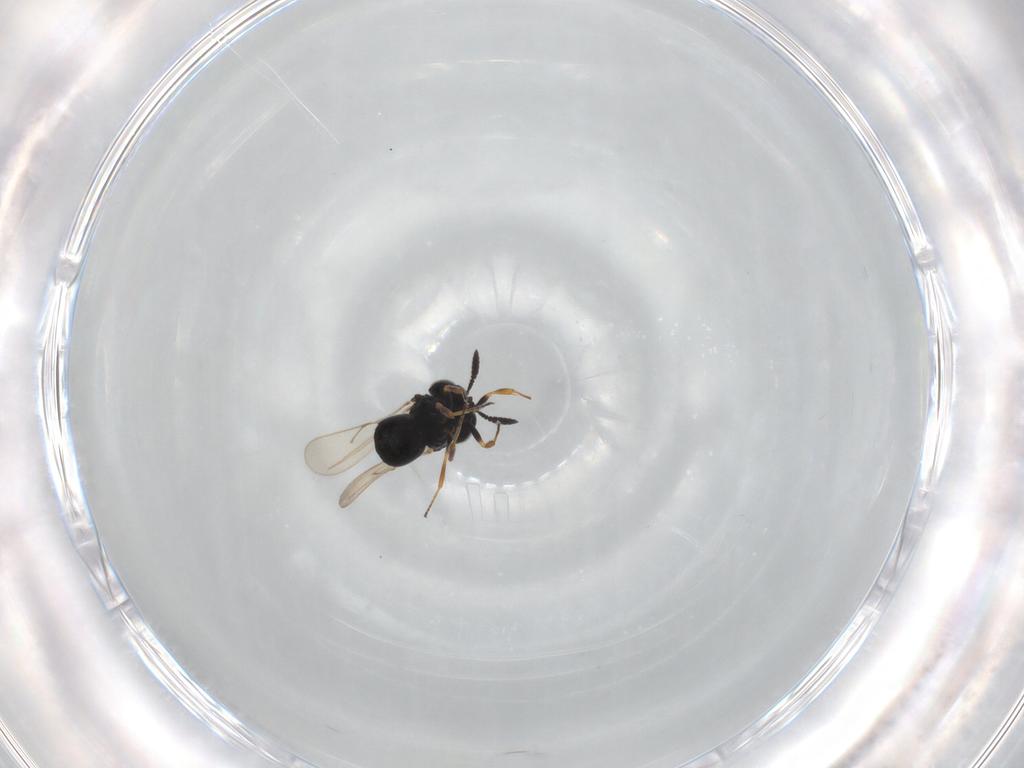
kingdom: Animalia
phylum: Arthropoda
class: Insecta
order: Hymenoptera
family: Scelionidae
